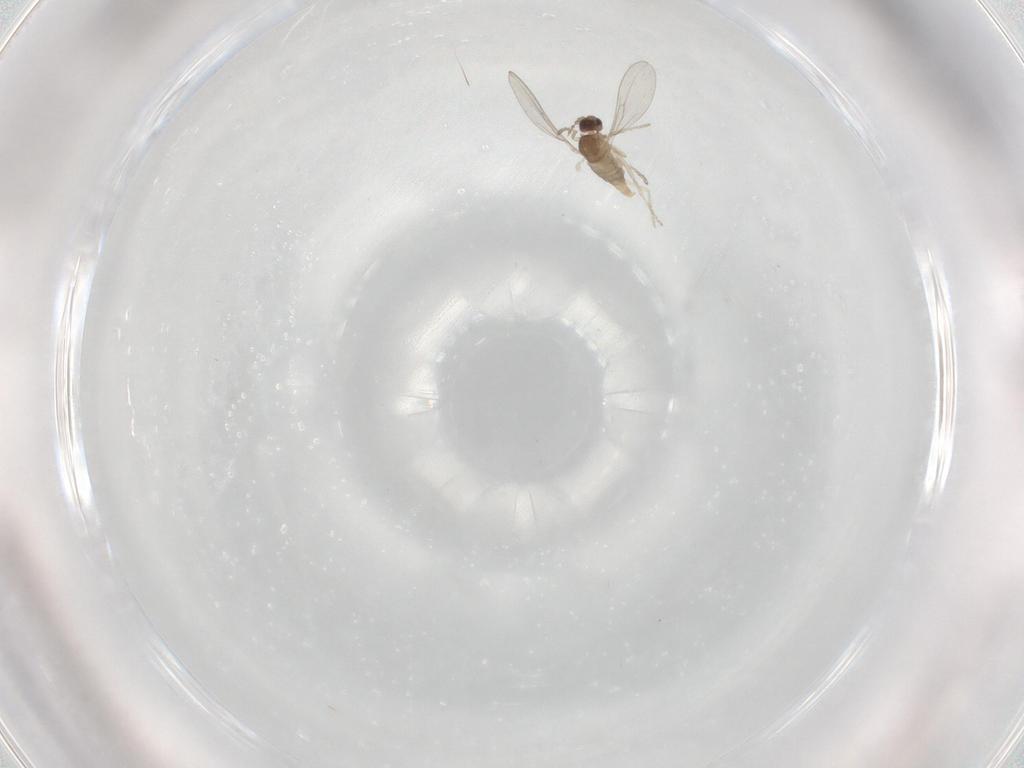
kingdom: Animalia
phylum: Arthropoda
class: Insecta
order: Diptera
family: Cecidomyiidae
